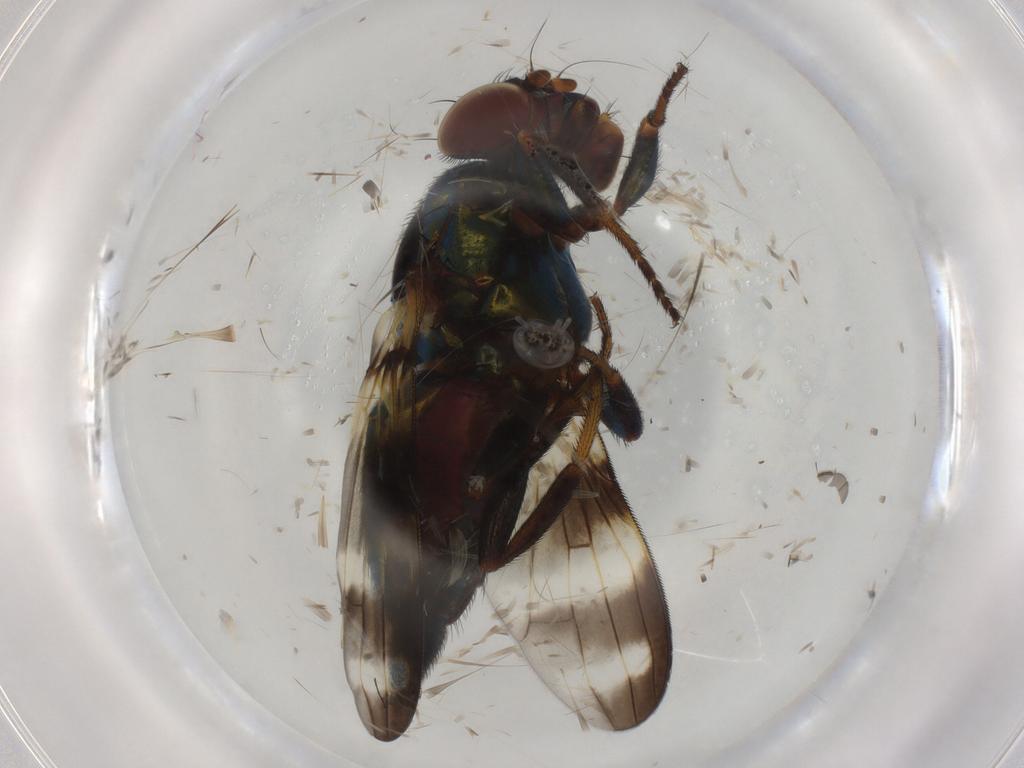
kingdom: Animalia
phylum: Arthropoda
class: Insecta
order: Diptera
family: Ulidiidae
